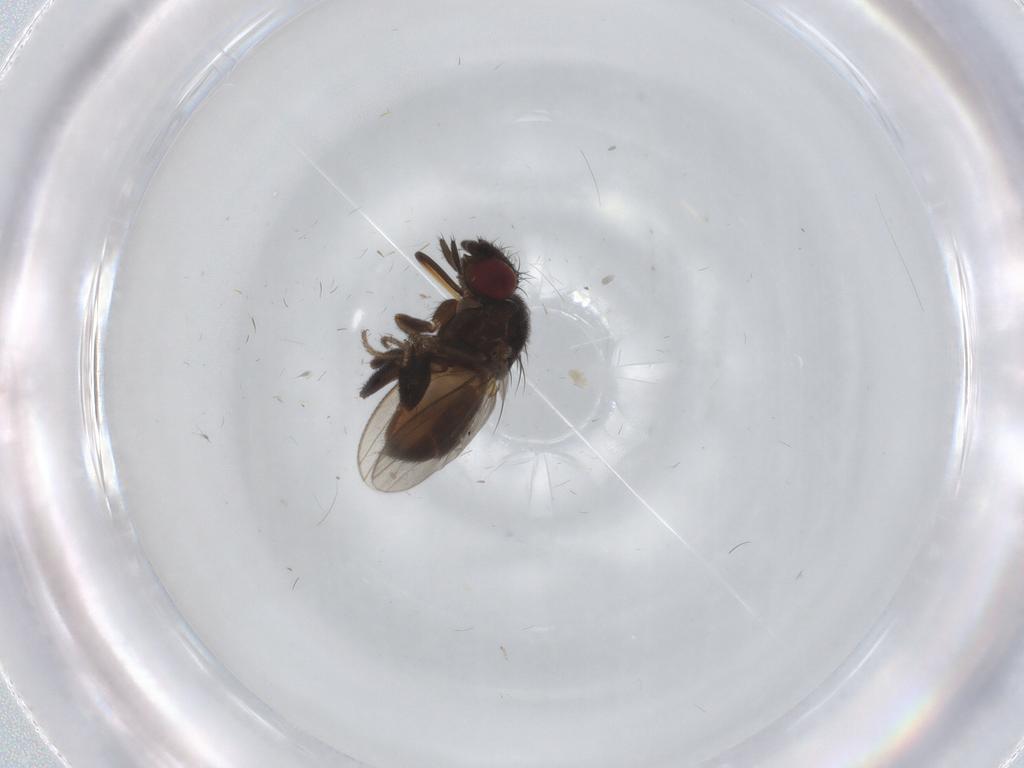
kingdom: Animalia
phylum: Arthropoda
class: Insecta
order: Diptera
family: Milichiidae
